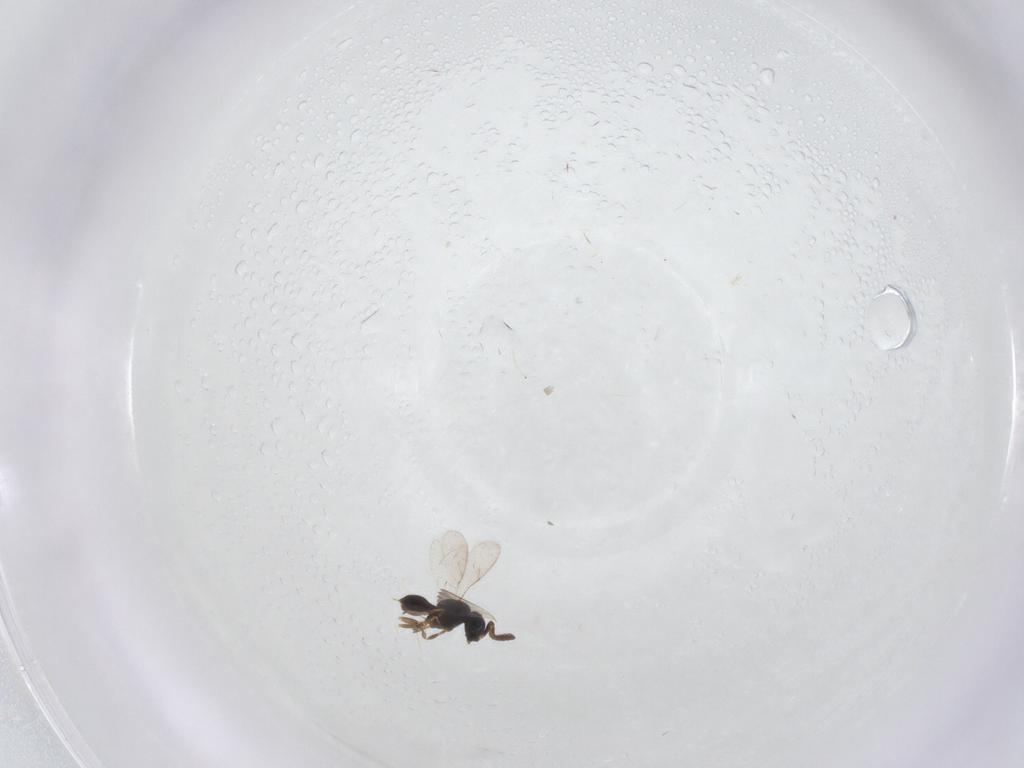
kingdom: Animalia
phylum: Arthropoda
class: Insecta
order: Hymenoptera
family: Scelionidae
